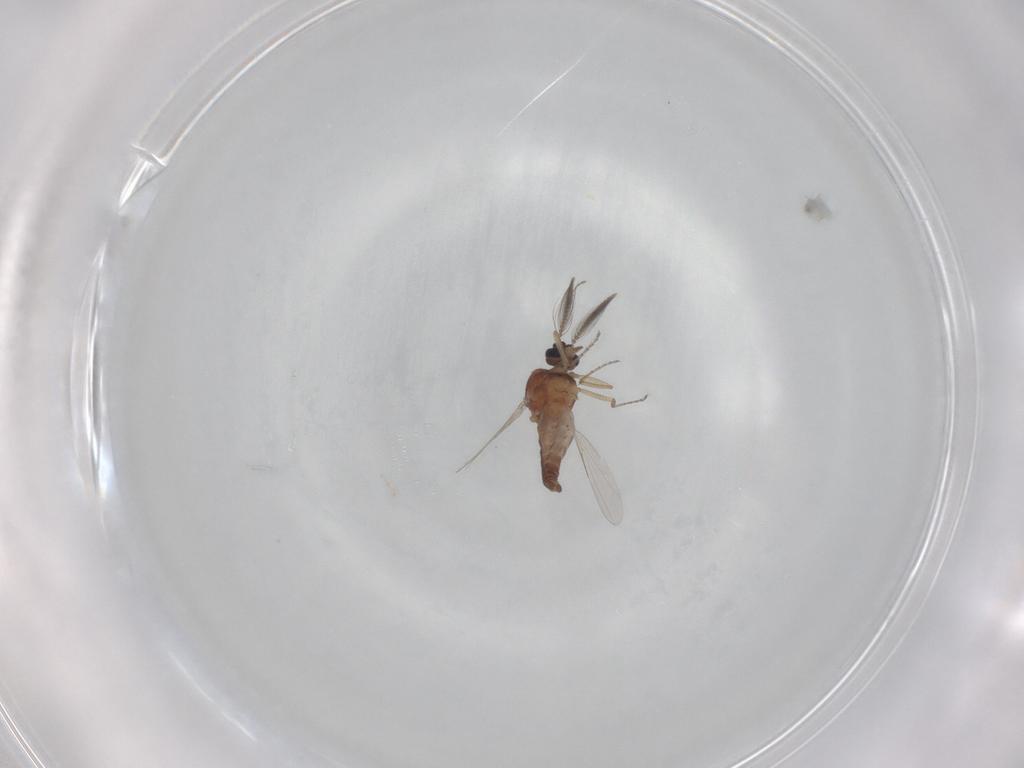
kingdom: Animalia
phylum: Arthropoda
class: Insecta
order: Diptera
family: Ceratopogonidae
